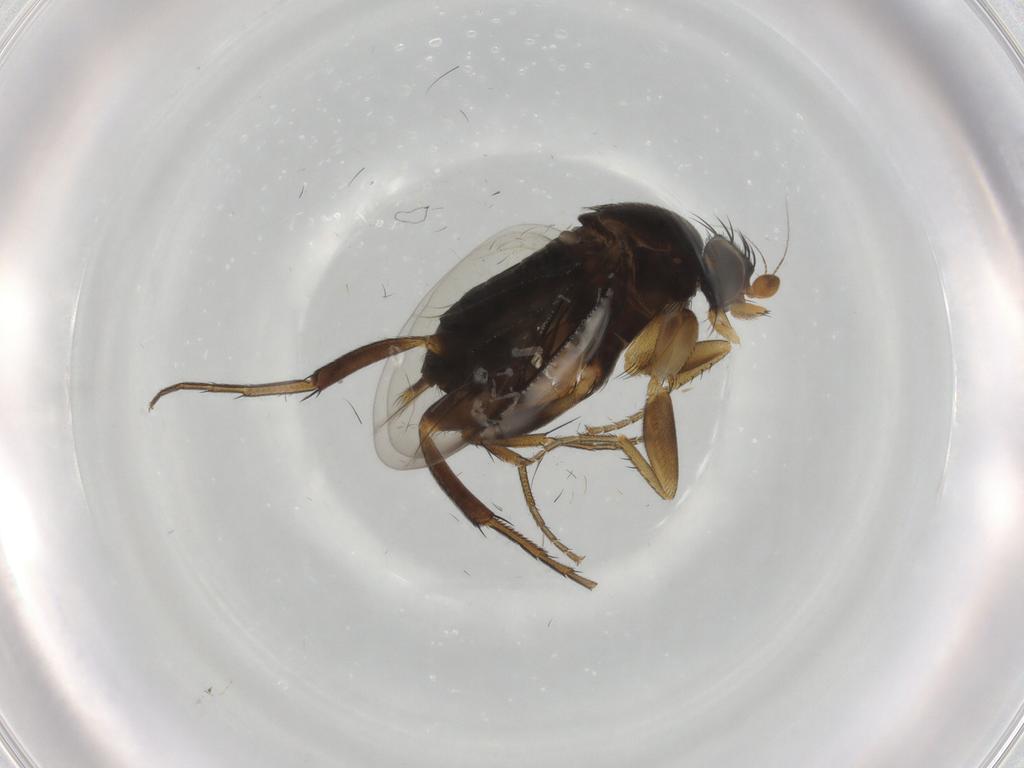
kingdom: Animalia
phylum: Arthropoda
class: Insecta
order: Diptera
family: Phoridae
